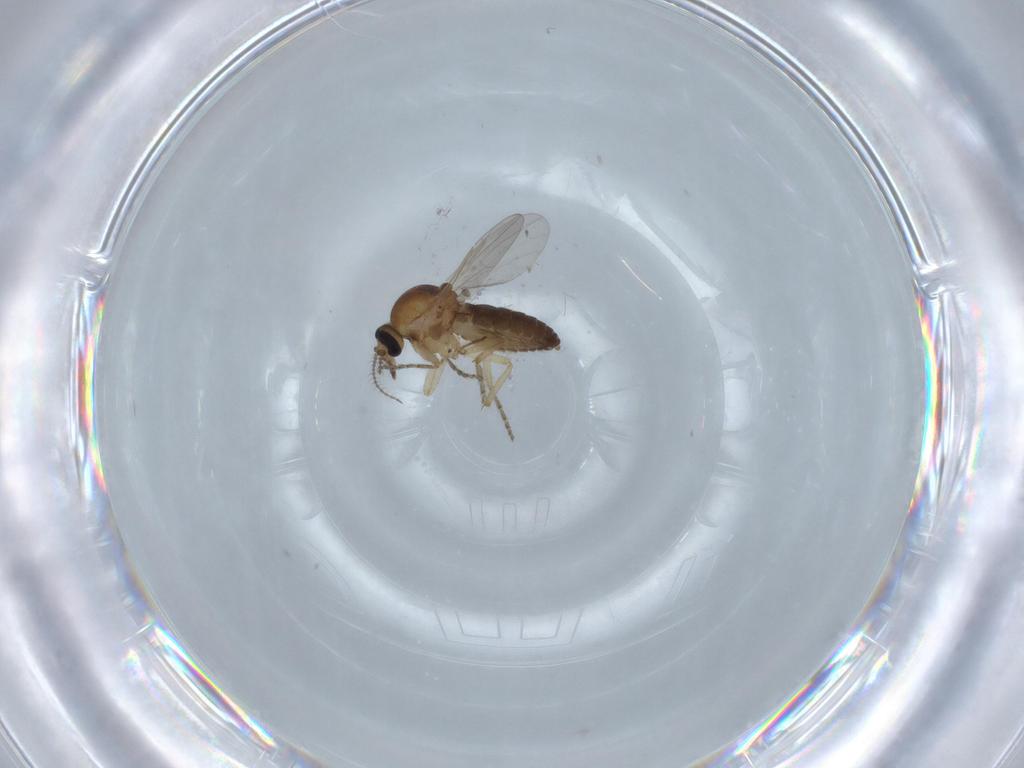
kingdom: Animalia
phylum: Arthropoda
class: Insecta
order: Diptera
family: Ceratopogonidae
